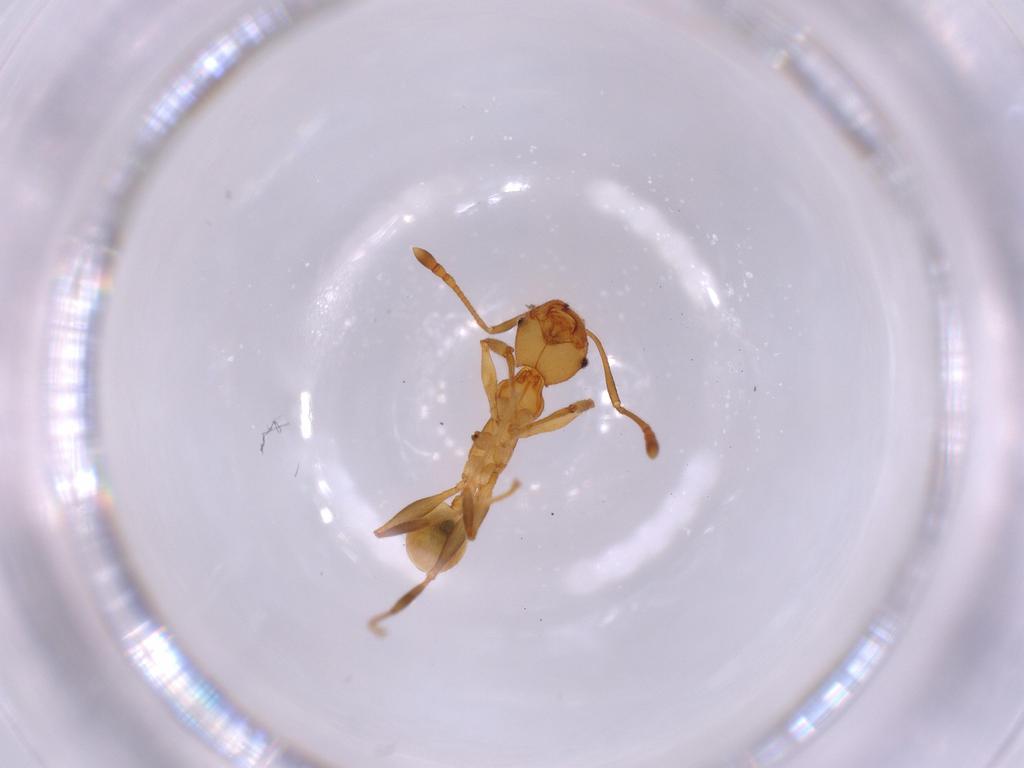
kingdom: Animalia
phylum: Arthropoda
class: Insecta
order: Hymenoptera
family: Formicidae
